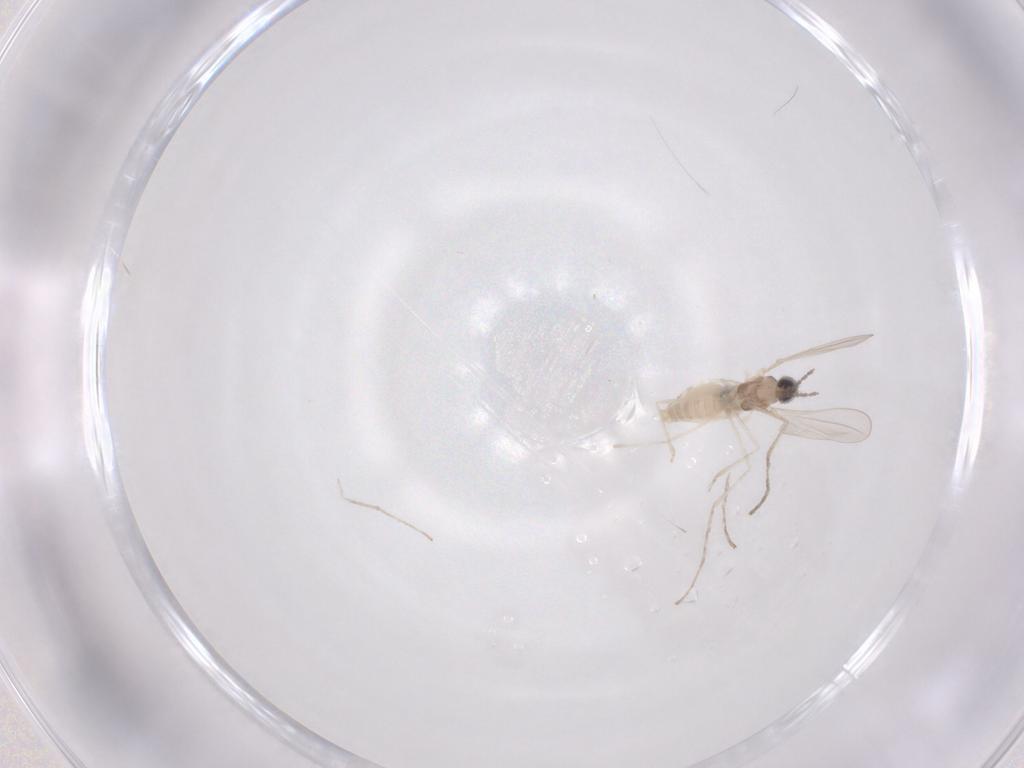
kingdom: Animalia
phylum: Arthropoda
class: Insecta
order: Diptera
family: Cecidomyiidae
